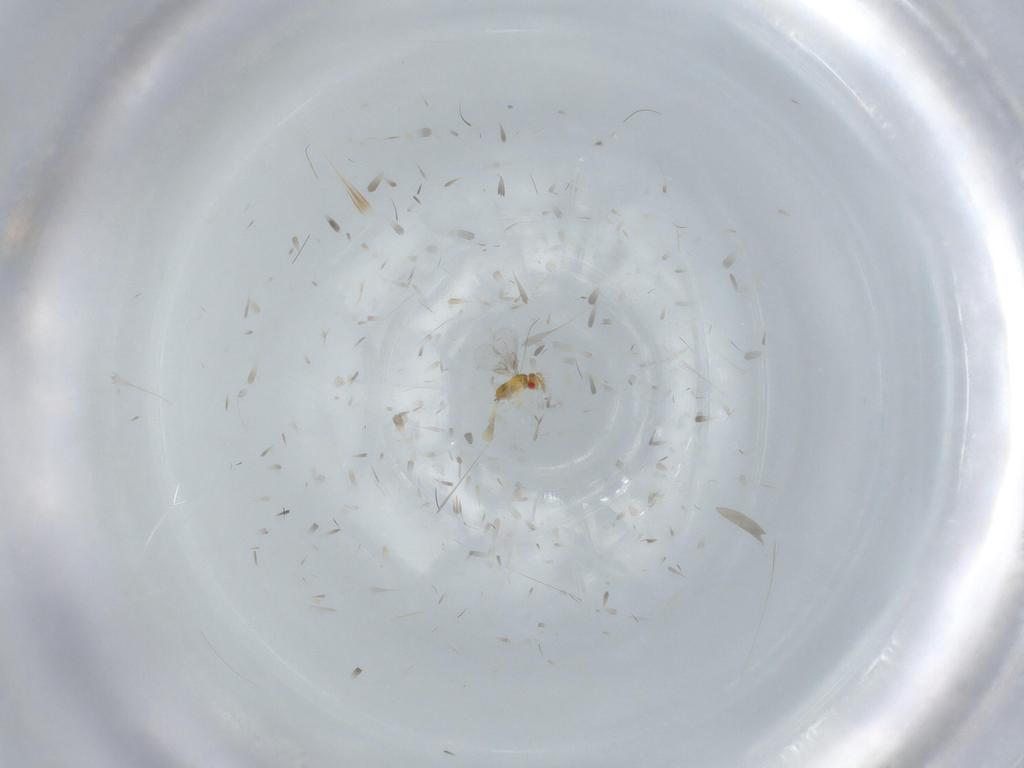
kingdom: Animalia
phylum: Arthropoda
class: Insecta
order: Hymenoptera
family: Trichogrammatidae
